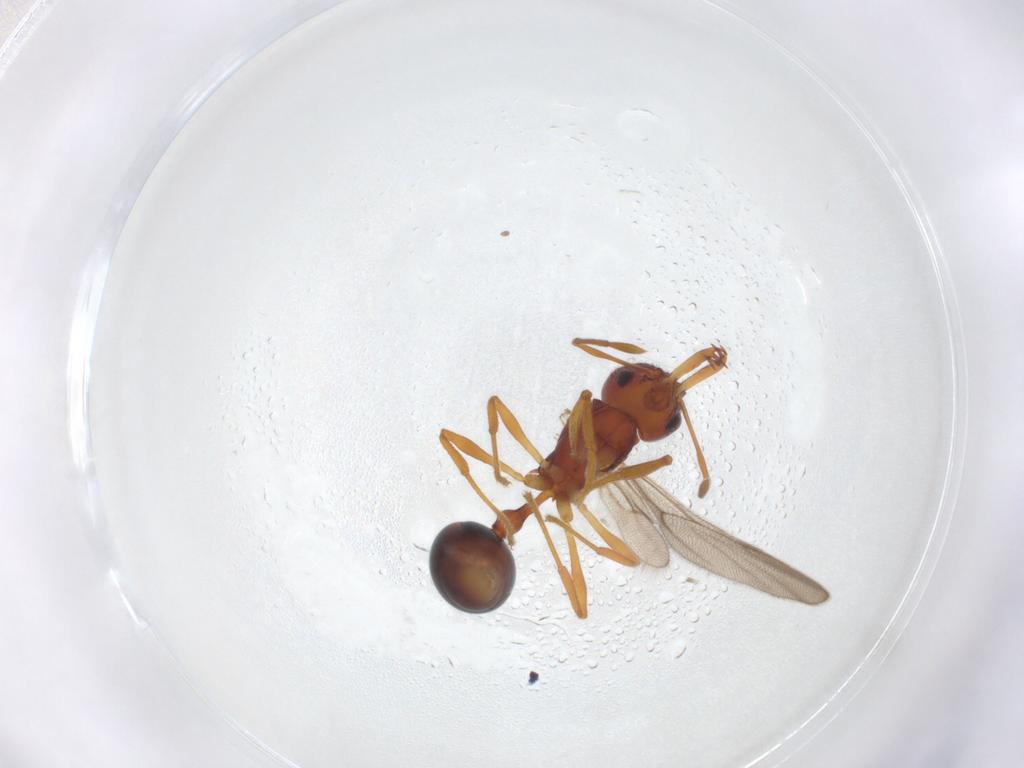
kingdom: Animalia
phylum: Arthropoda
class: Insecta
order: Hymenoptera
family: Formicidae
